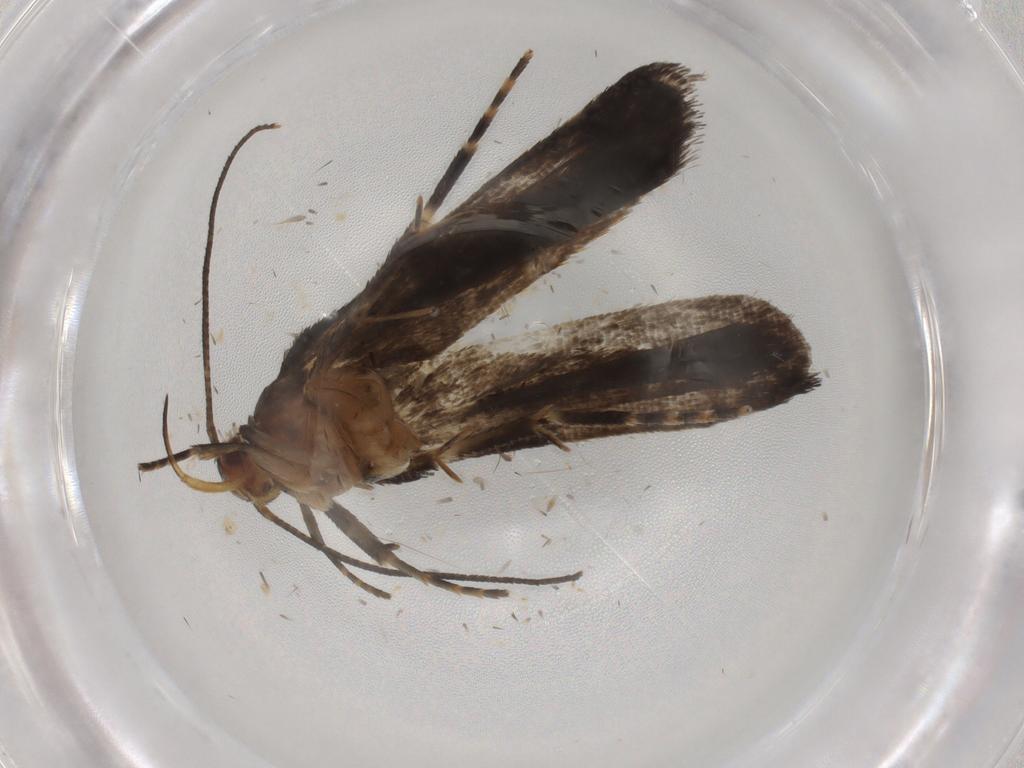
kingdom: Animalia
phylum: Arthropoda
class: Insecta
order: Lepidoptera
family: Gelechiidae
